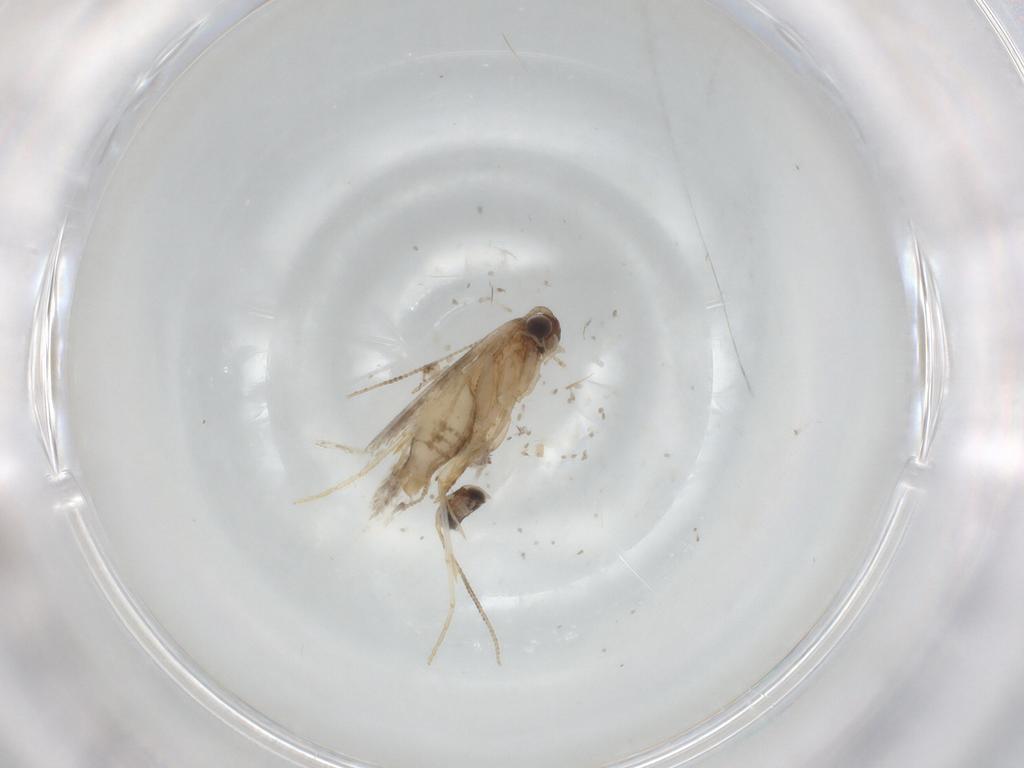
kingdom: Animalia
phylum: Arthropoda
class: Insecta
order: Lepidoptera
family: Tineidae
